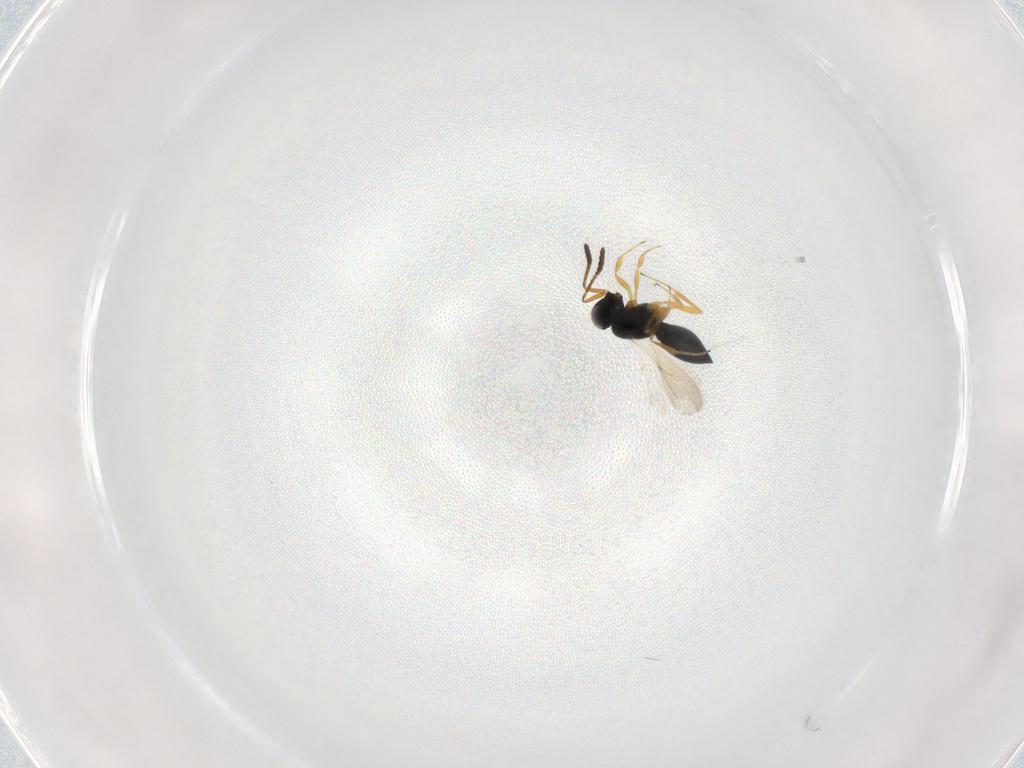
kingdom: Animalia
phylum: Arthropoda
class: Insecta
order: Hymenoptera
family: Scelionidae
